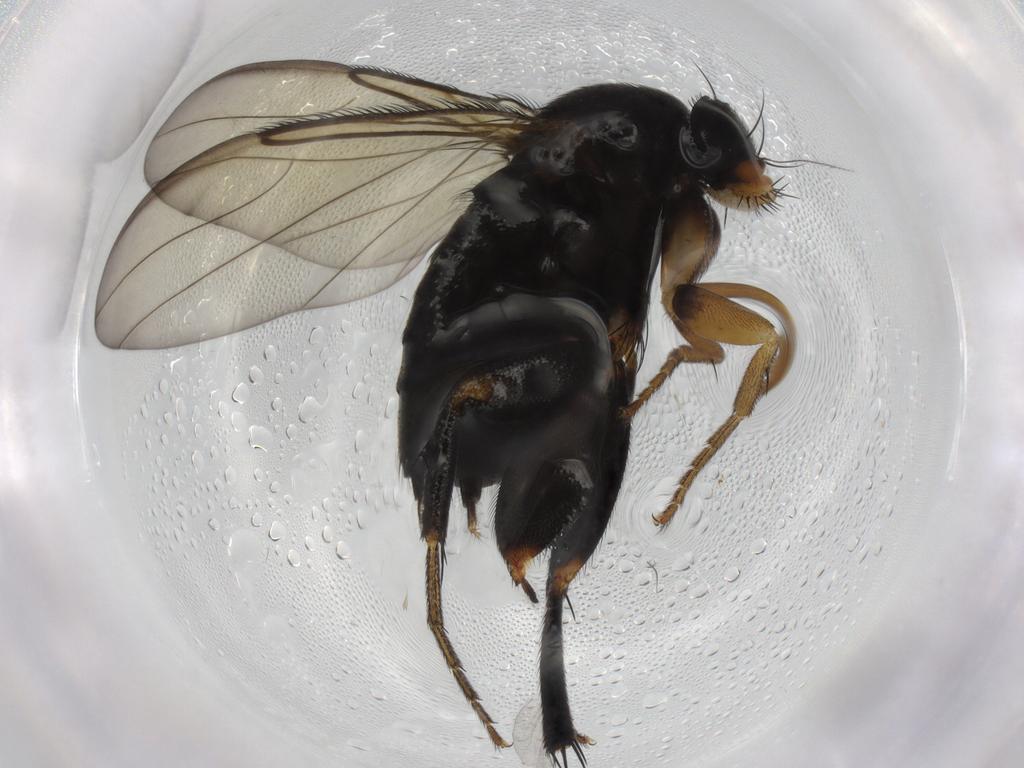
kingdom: Animalia
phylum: Arthropoda
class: Insecta
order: Diptera
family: Phoridae
